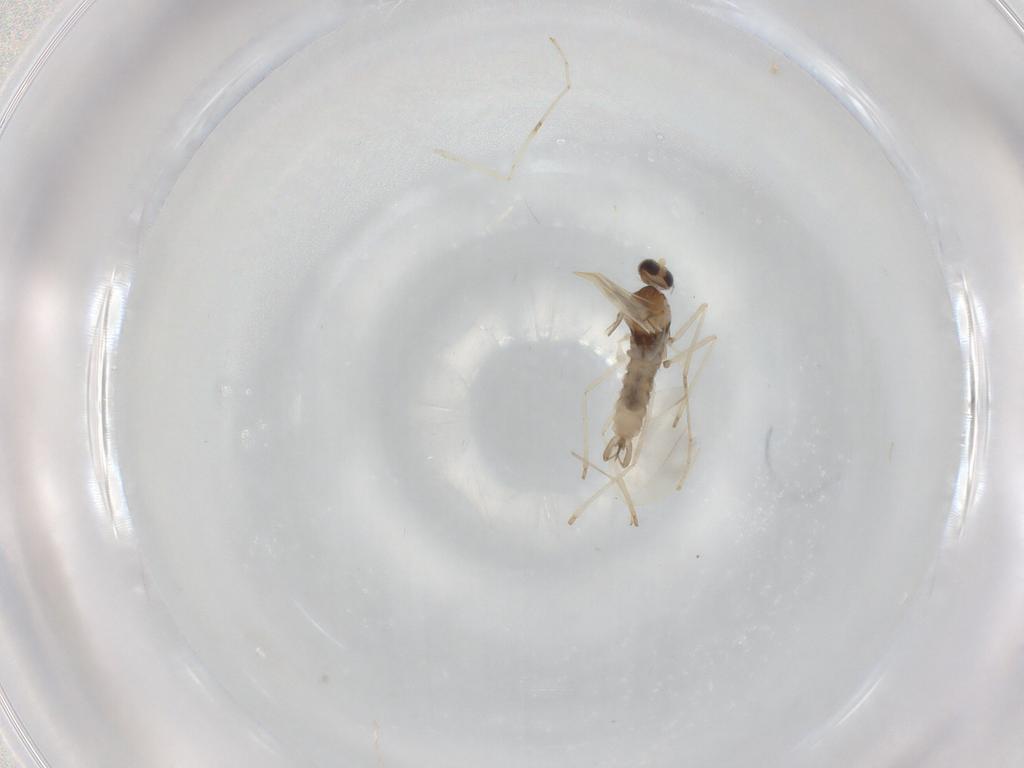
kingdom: Animalia
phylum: Arthropoda
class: Insecta
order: Diptera
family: Cecidomyiidae
